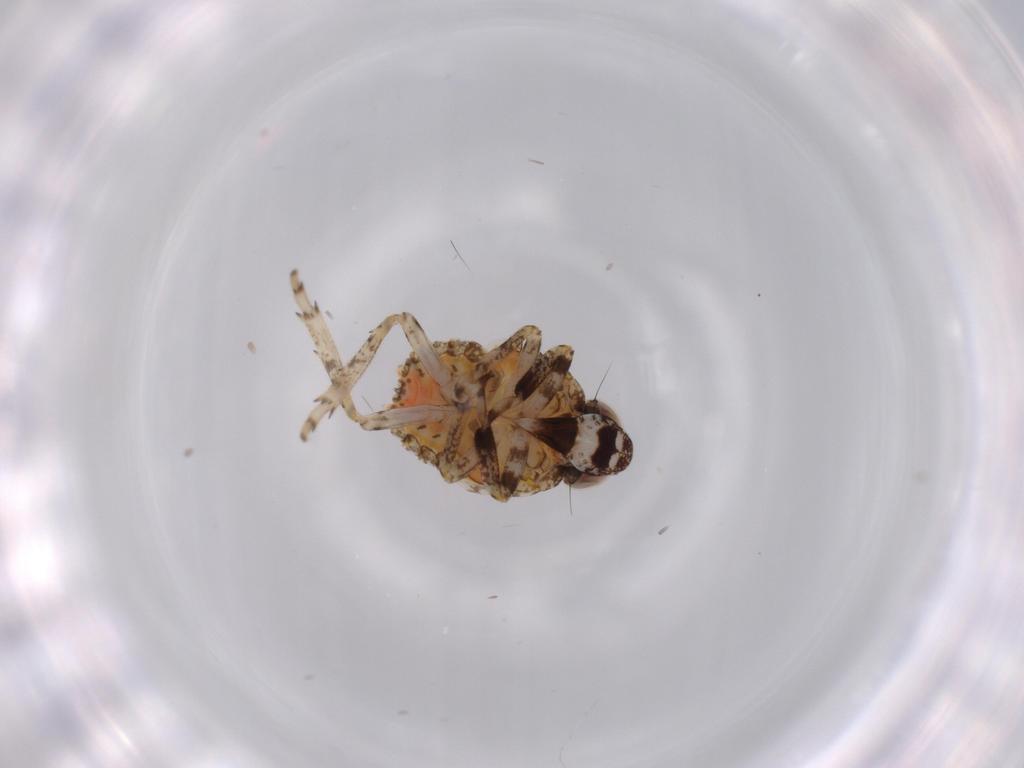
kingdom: Animalia
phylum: Arthropoda
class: Insecta
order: Hemiptera
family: Issidae
